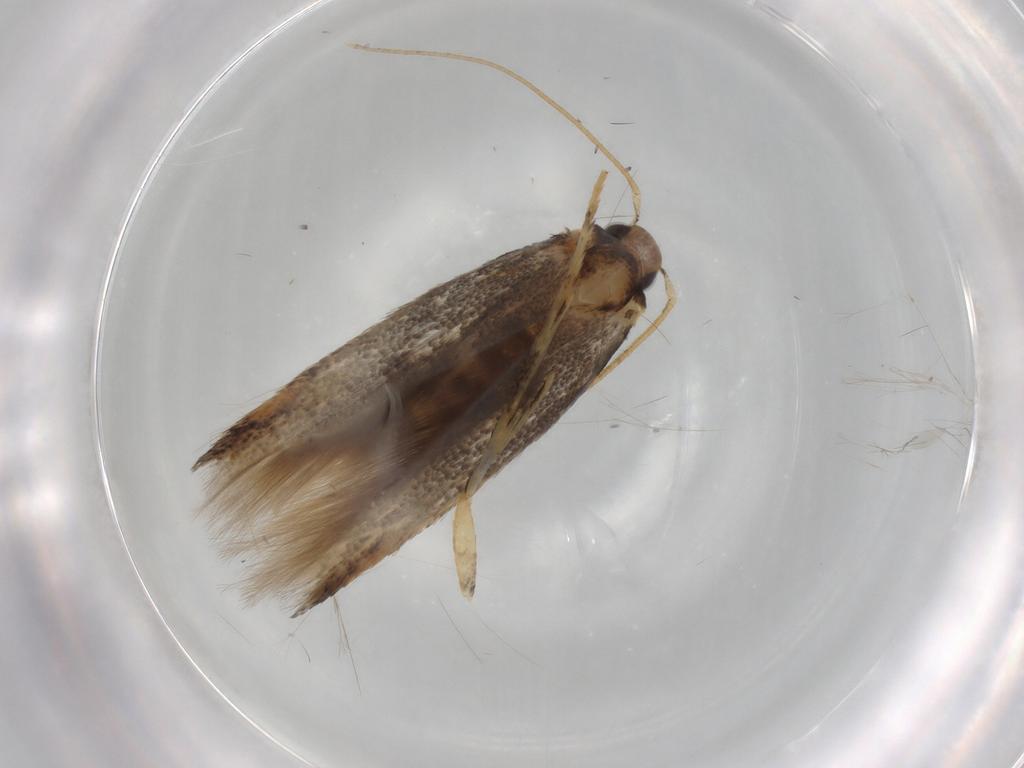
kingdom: Animalia
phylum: Arthropoda
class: Insecta
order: Lepidoptera
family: Cosmopterigidae
